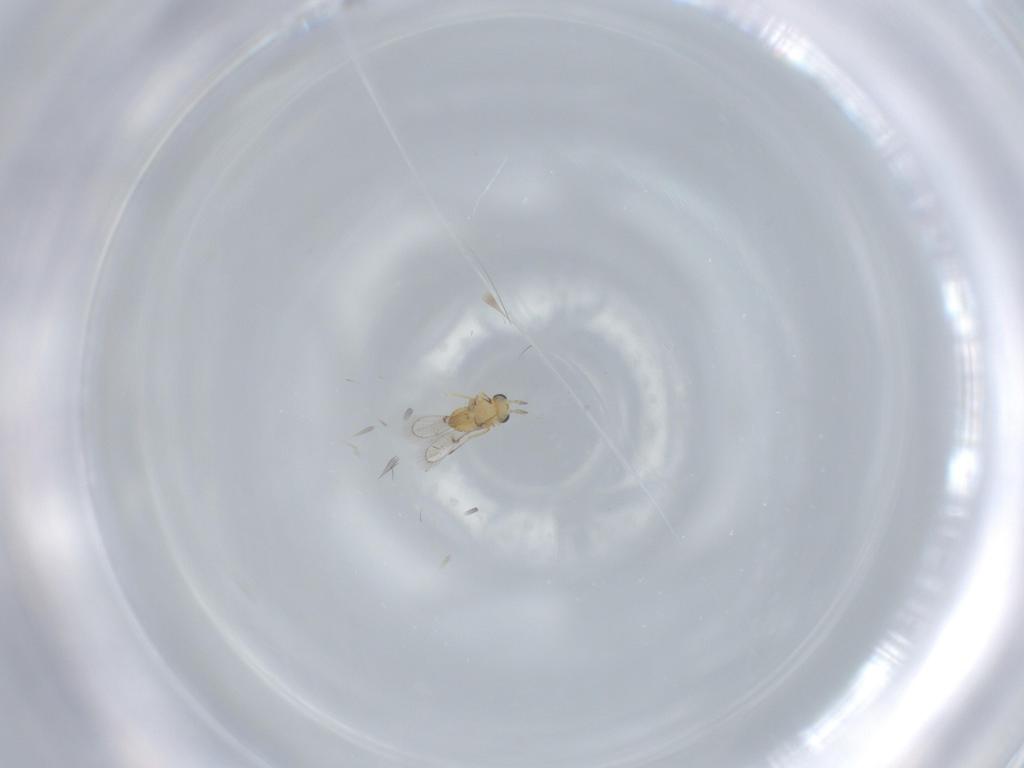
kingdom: Animalia
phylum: Arthropoda
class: Insecta
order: Hymenoptera
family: Trichogrammatidae
